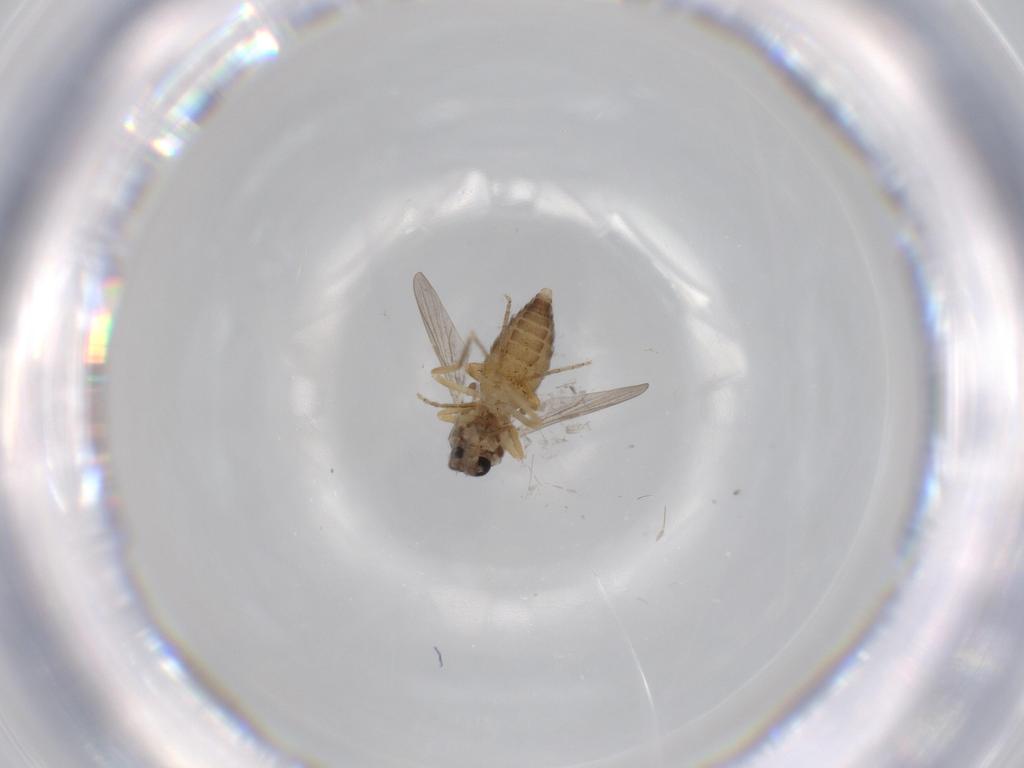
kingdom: Animalia
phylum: Arthropoda
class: Insecta
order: Diptera
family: Ceratopogonidae
